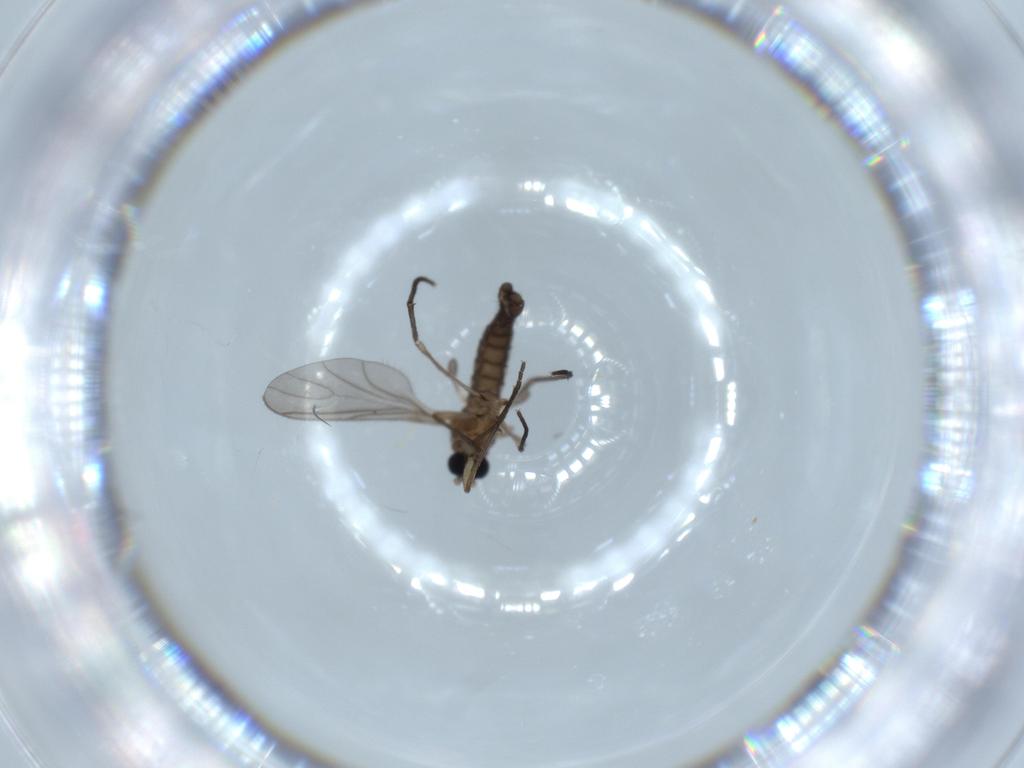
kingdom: Animalia
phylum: Arthropoda
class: Insecta
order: Diptera
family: Sciaridae
